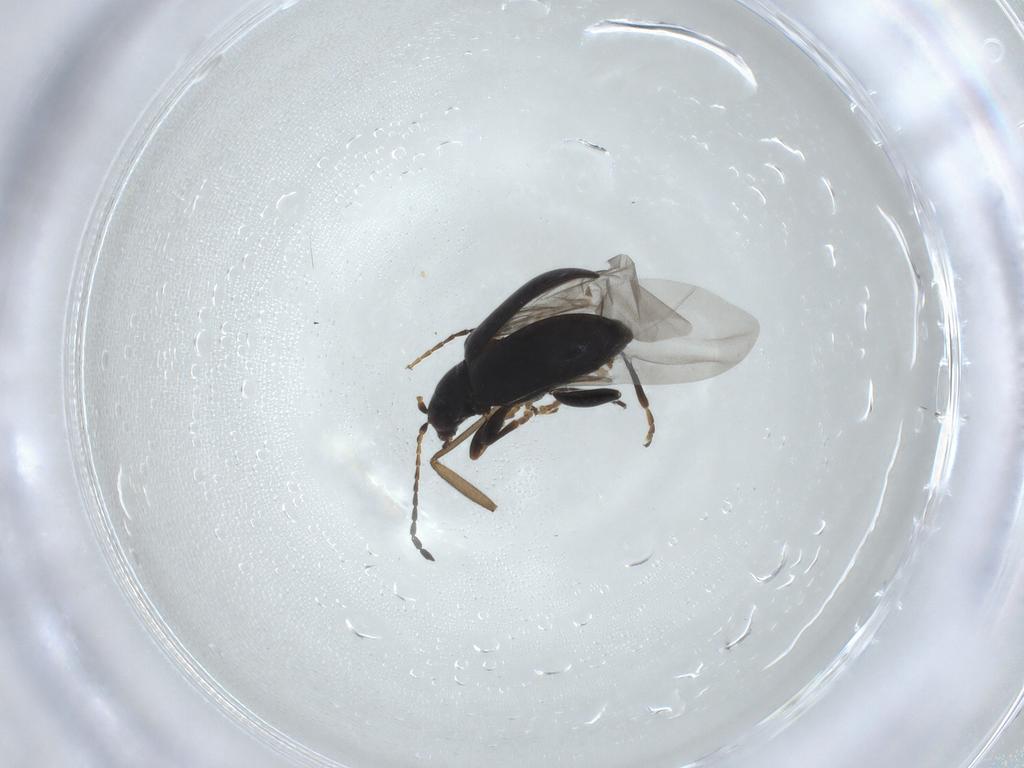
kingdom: Animalia
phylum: Arthropoda
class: Insecta
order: Coleoptera
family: Chrysomelidae
